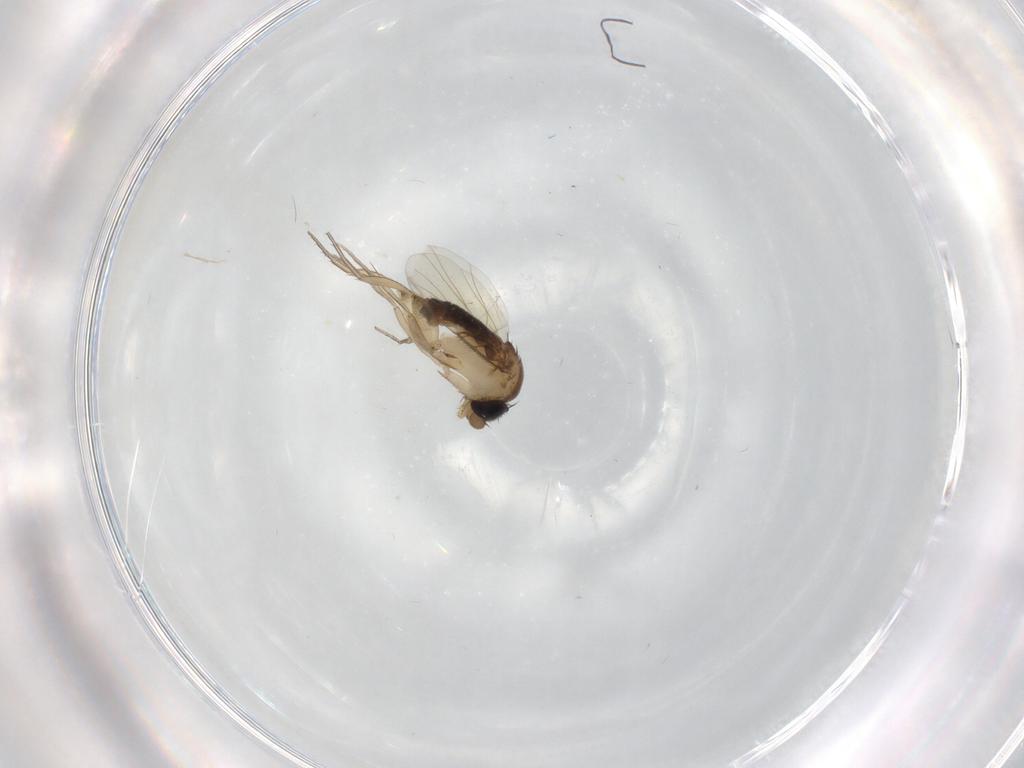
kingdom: Animalia
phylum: Arthropoda
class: Insecta
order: Diptera
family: Phoridae
